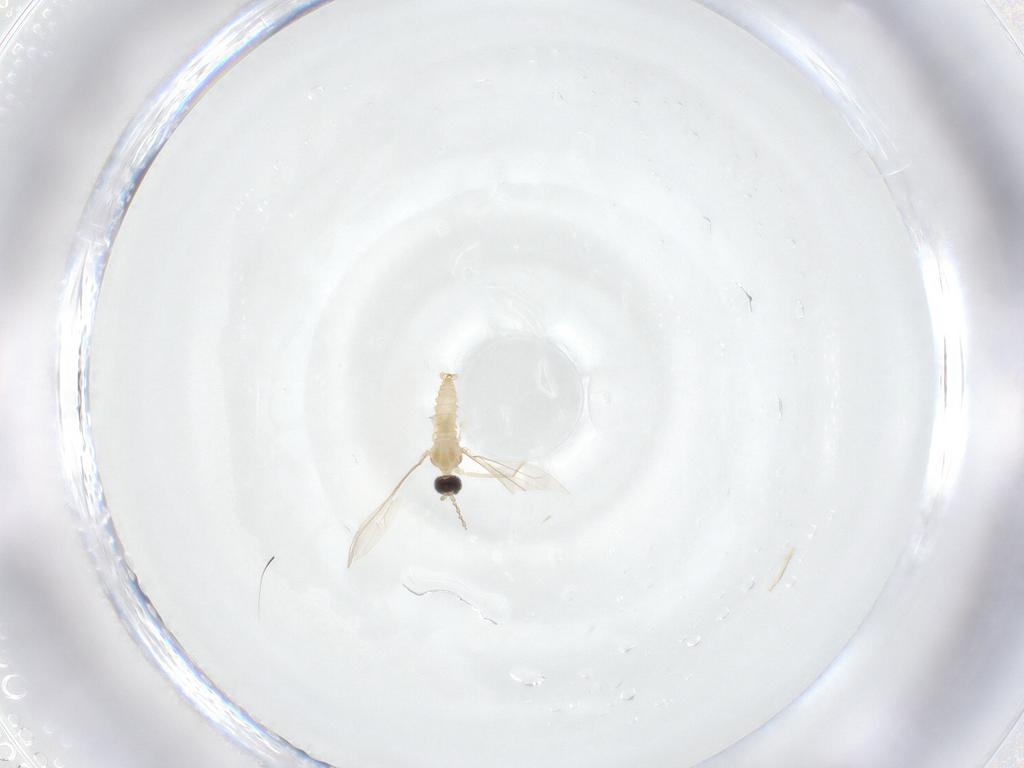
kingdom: Animalia
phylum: Arthropoda
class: Insecta
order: Diptera
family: Cecidomyiidae
